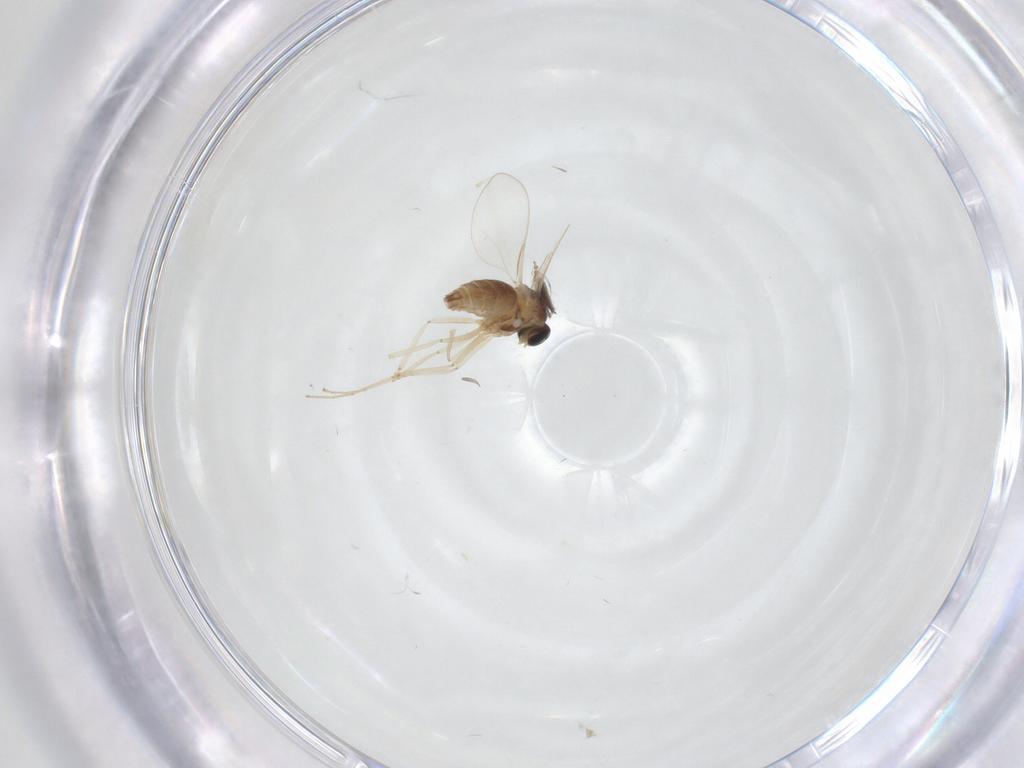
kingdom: Animalia
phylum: Arthropoda
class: Insecta
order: Diptera
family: Cecidomyiidae
